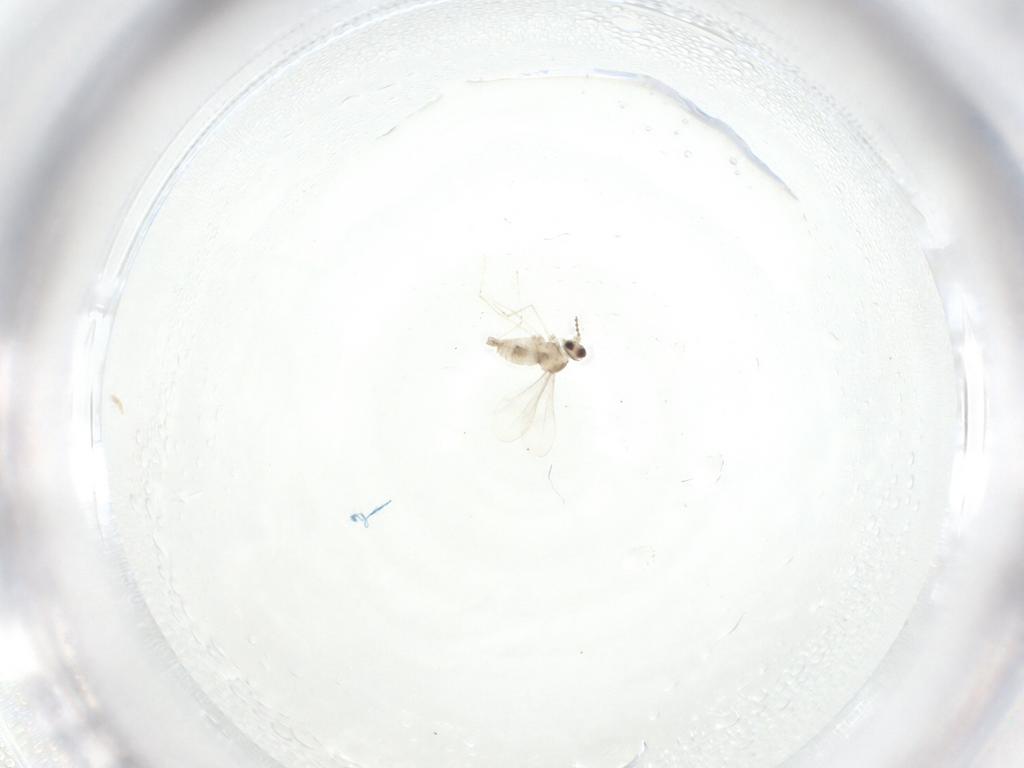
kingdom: Animalia
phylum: Arthropoda
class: Insecta
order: Diptera
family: Cecidomyiidae
